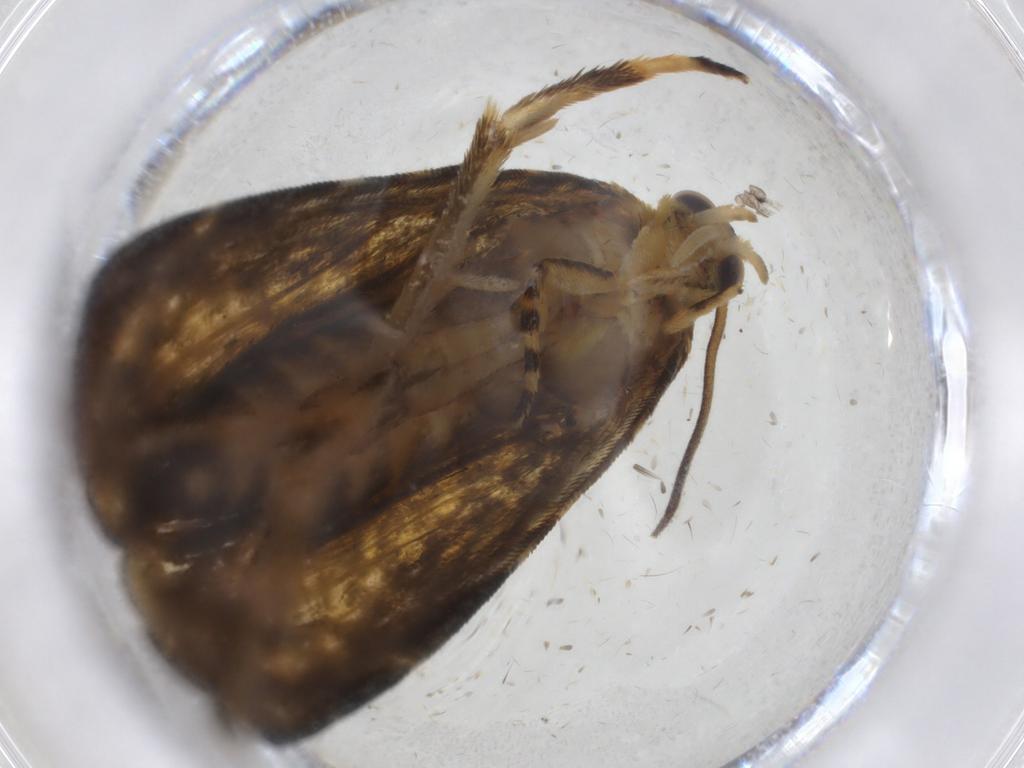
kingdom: Animalia
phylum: Arthropoda
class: Insecta
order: Lepidoptera
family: Tortricidae
